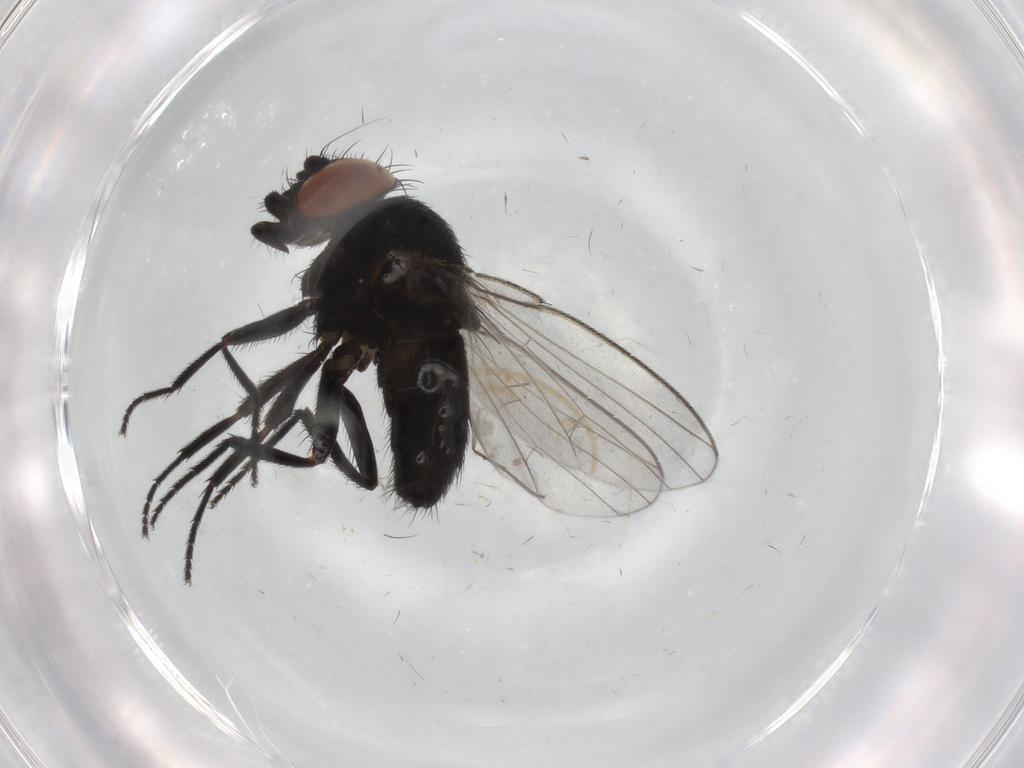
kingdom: Animalia
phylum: Arthropoda
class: Insecta
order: Diptera
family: Milichiidae
